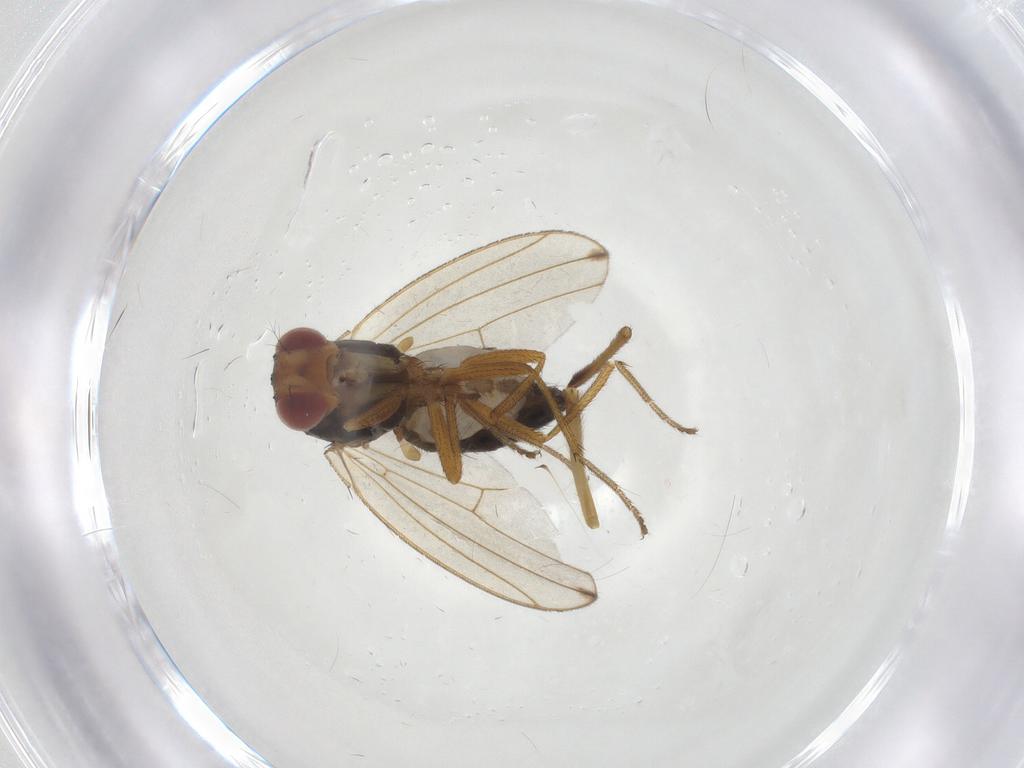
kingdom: Animalia
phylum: Arthropoda
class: Insecta
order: Diptera
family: Drosophilidae
